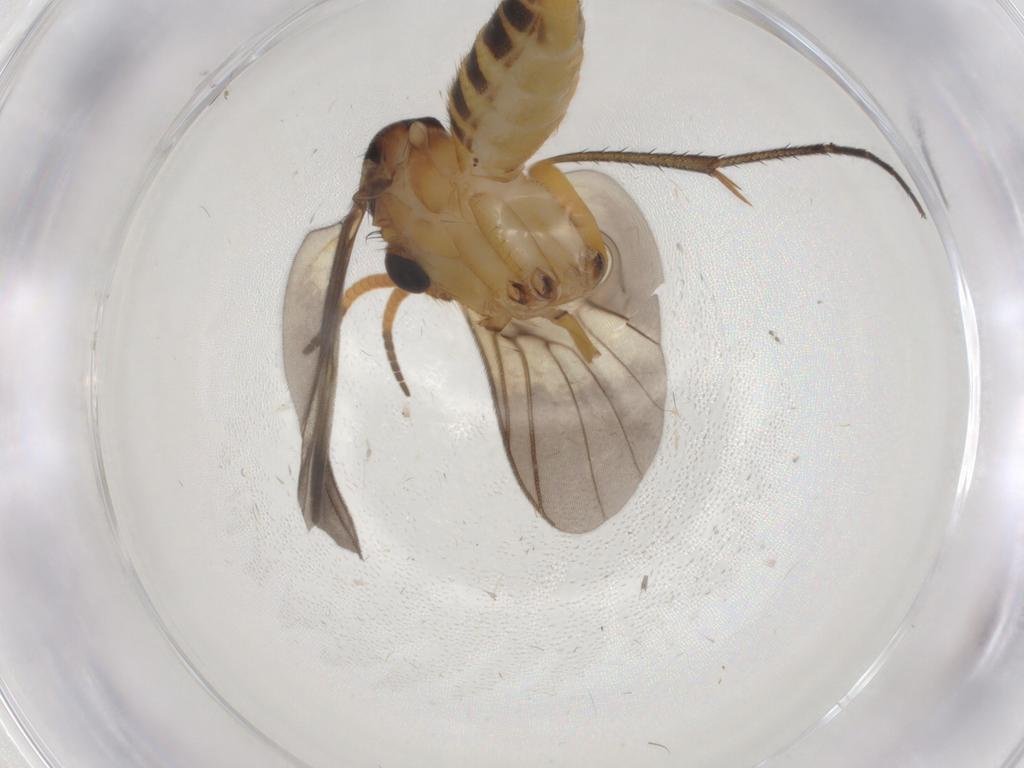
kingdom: Animalia
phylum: Arthropoda
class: Insecta
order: Diptera
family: Mycetophilidae
